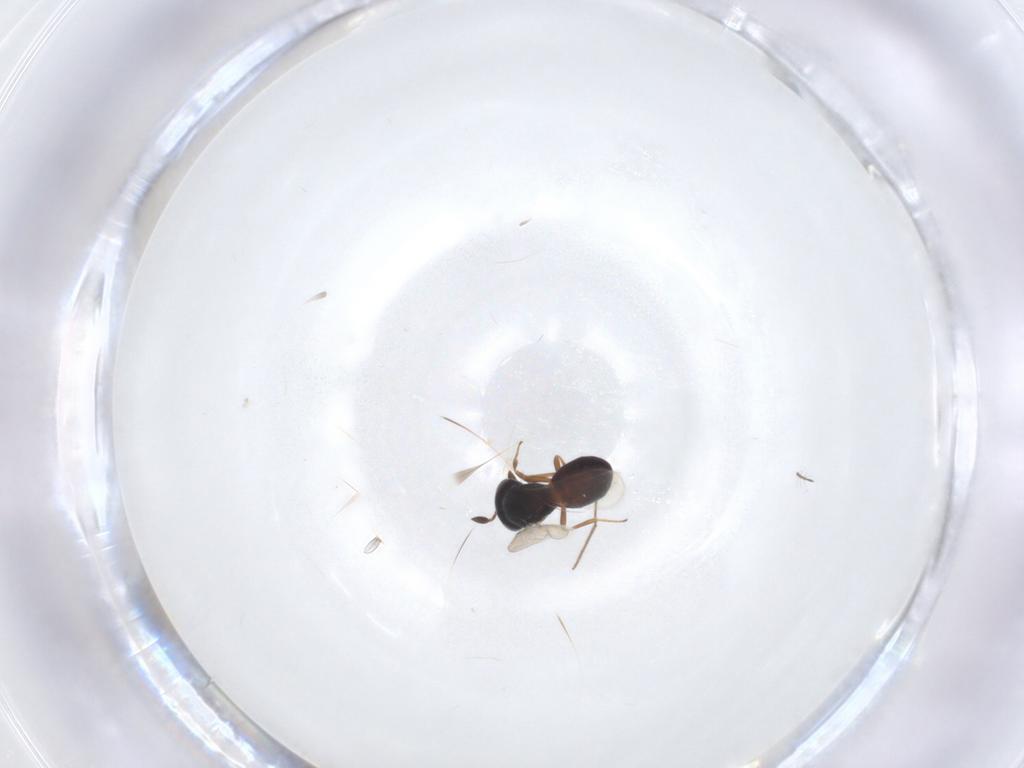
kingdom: Animalia
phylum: Arthropoda
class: Insecta
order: Hymenoptera
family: Scelionidae
